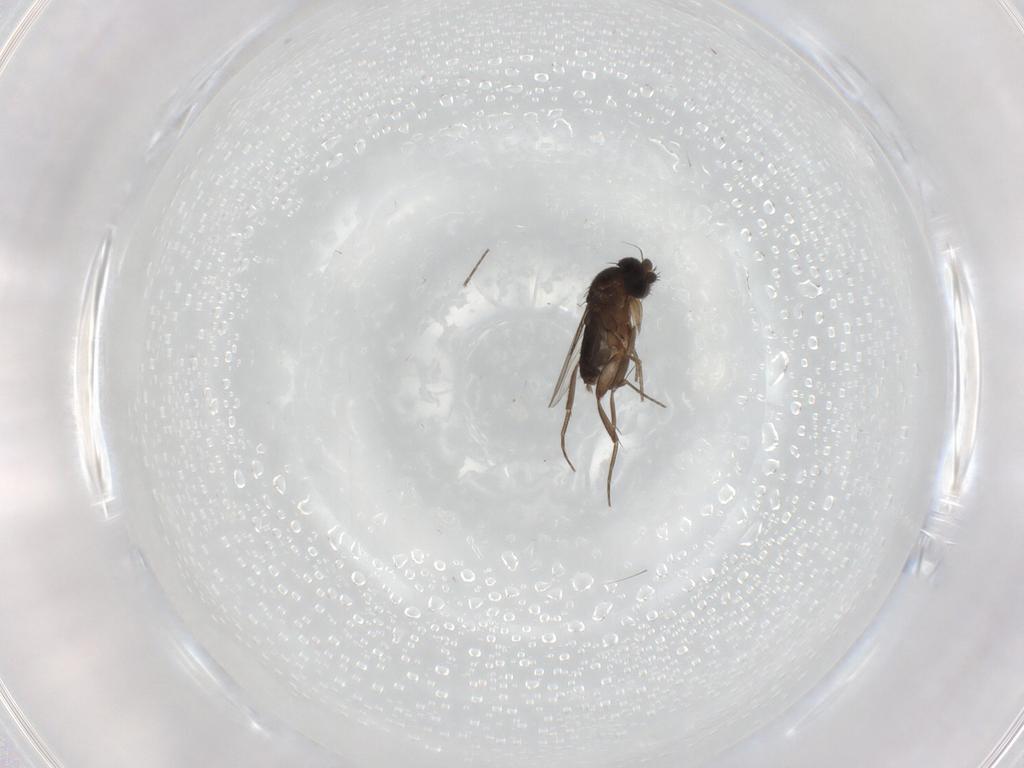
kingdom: Animalia
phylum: Arthropoda
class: Insecta
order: Diptera
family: Phoridae
